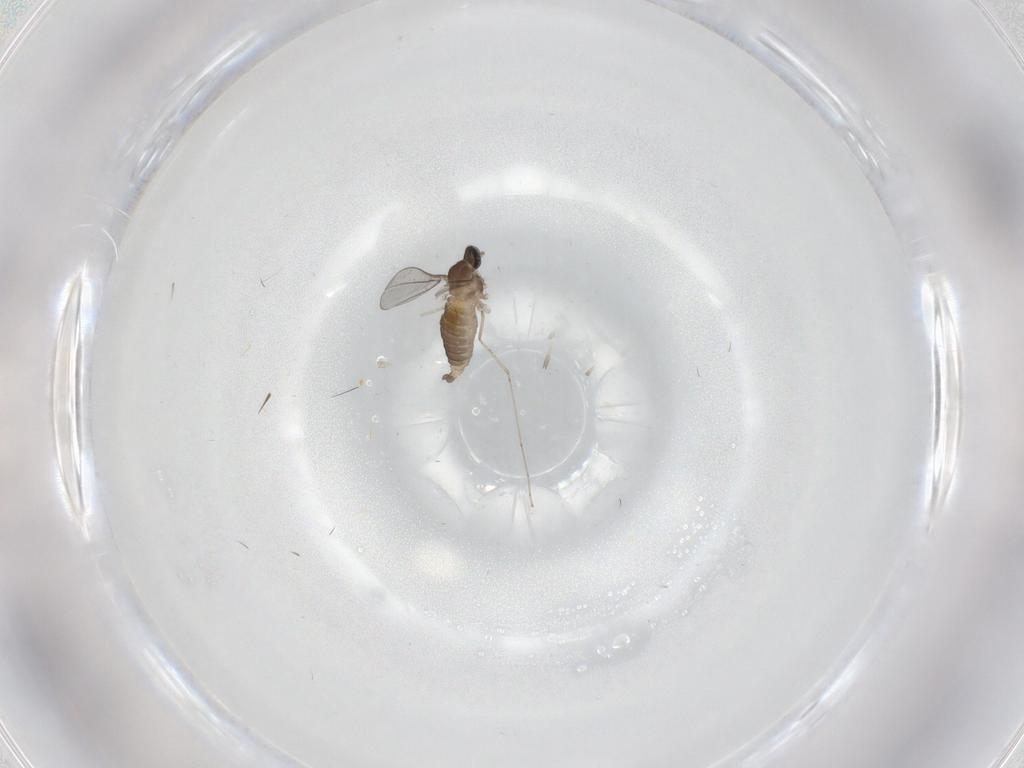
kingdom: Animalia
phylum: Arthropoda
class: Insecta
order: Diptera
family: Cecidomyiidae
